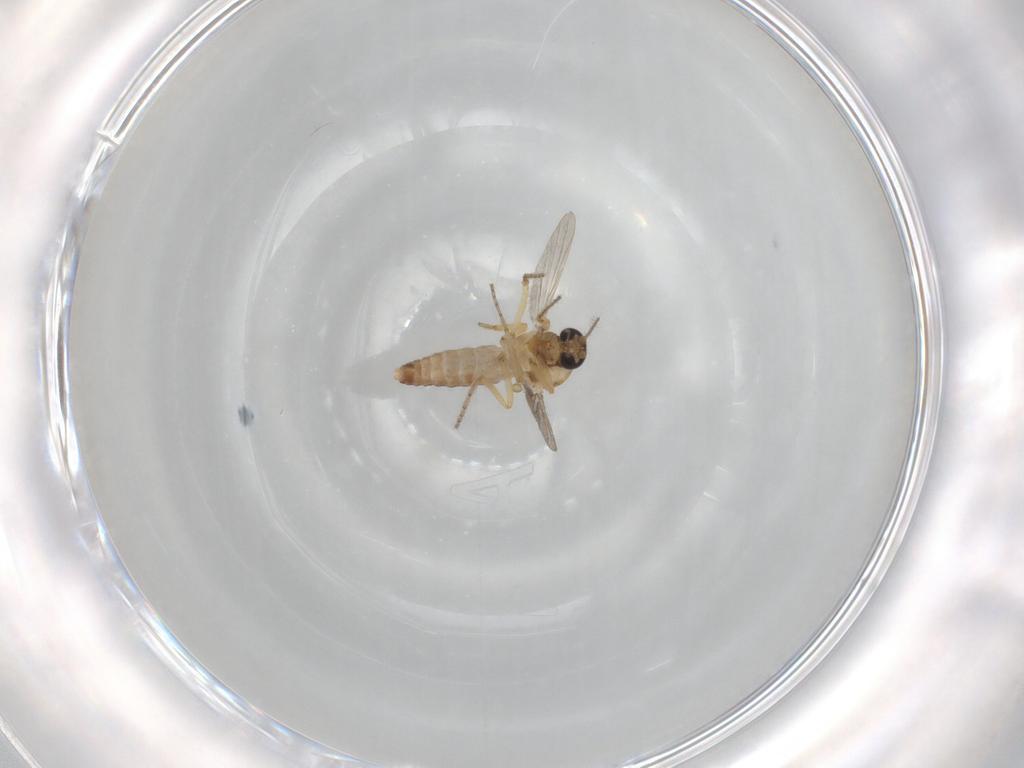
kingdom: Animalia
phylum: Arthropoda
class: Insecta
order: Diptera
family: Ceratopogonidae
